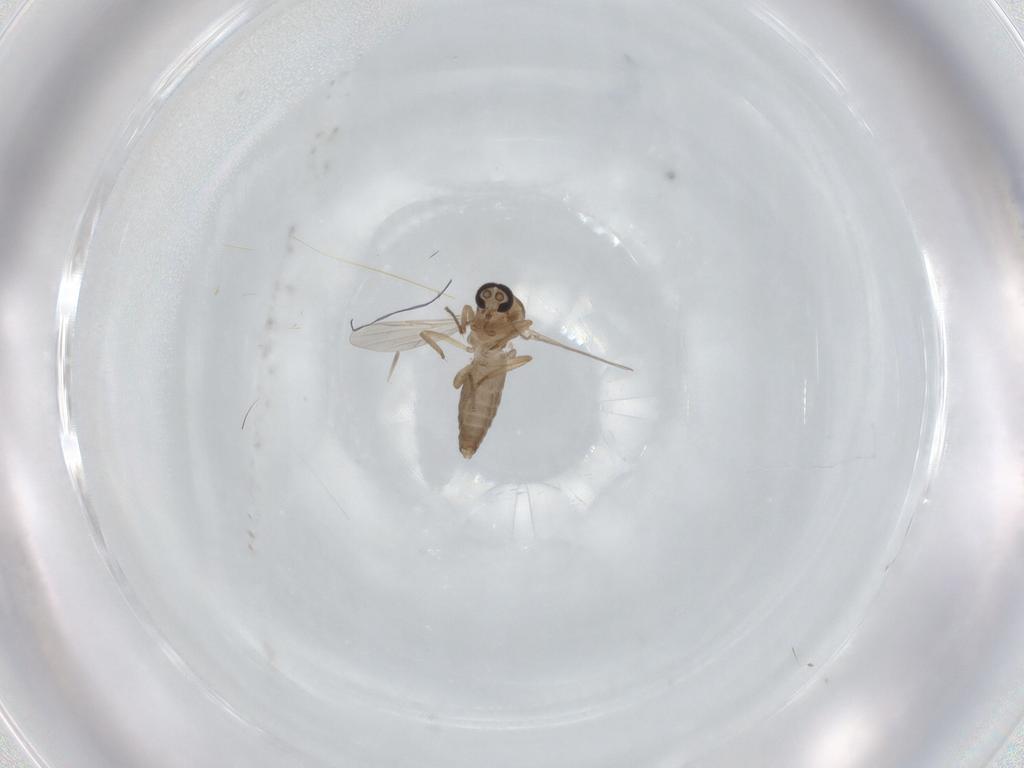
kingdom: Animalia
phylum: Arthropoda
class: Insecta
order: Diptera
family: Ceratopogonidae
